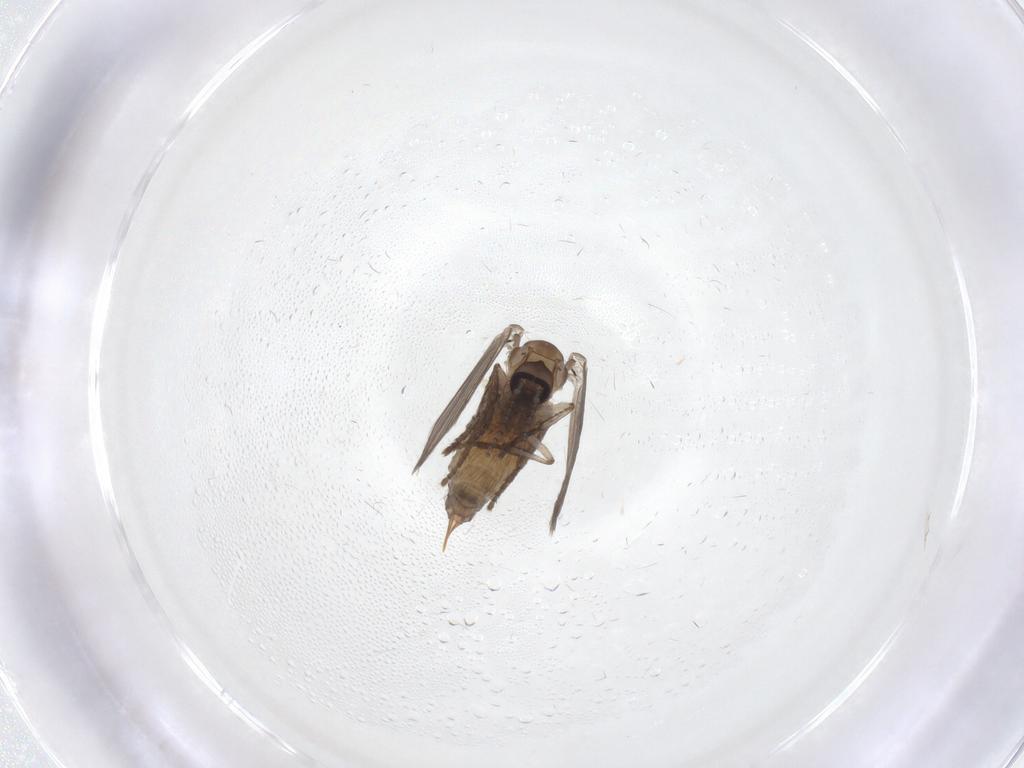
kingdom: Animalia
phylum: Arthropoda
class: Insecta
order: Diptera
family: Psychodidae
